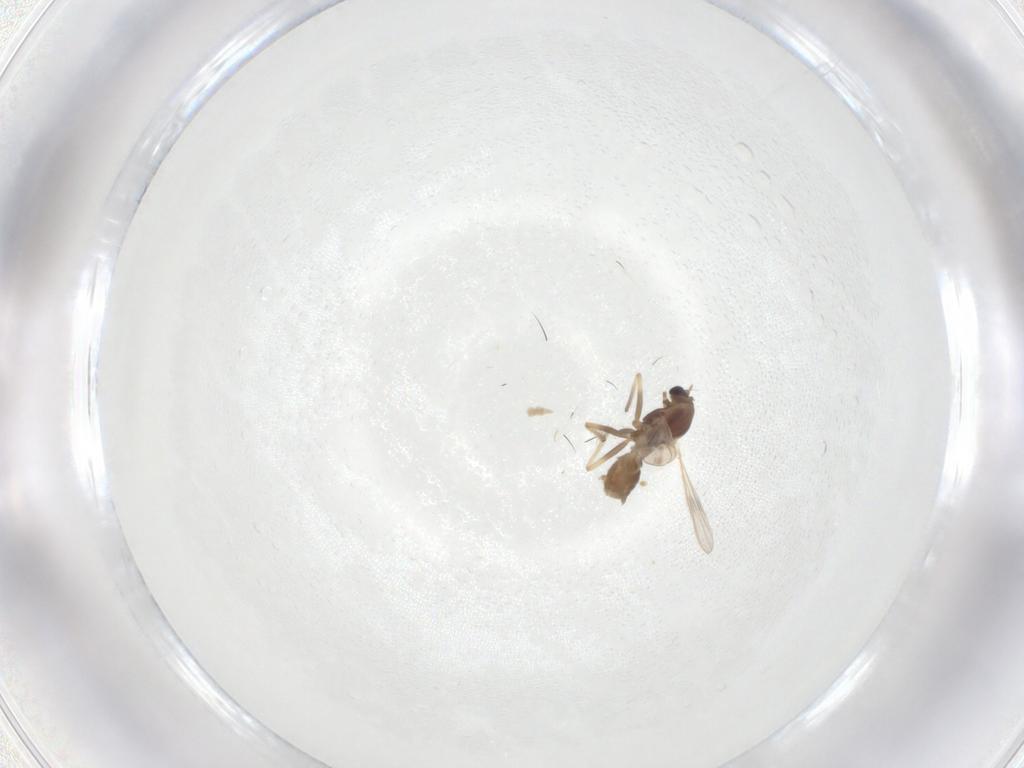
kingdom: Animalia
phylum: Arthropoda
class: Insecta
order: Diptera
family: Chironomidae
